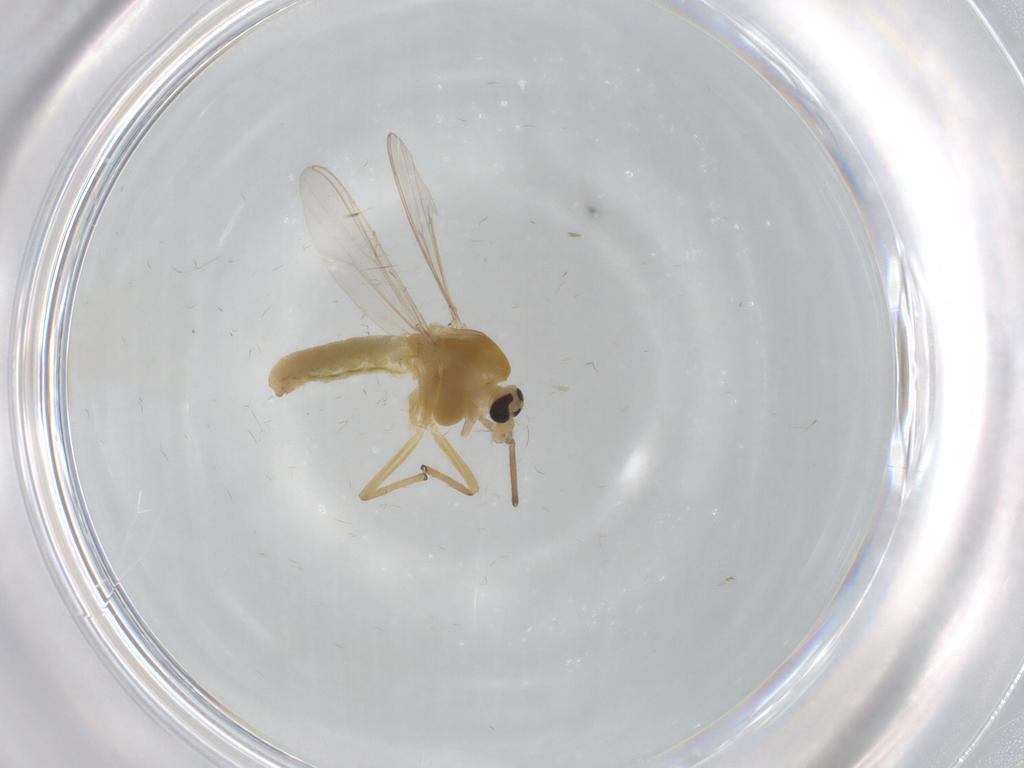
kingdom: Animalia
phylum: Arthropoda
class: Insecta
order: Diptera
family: Chironomidae
